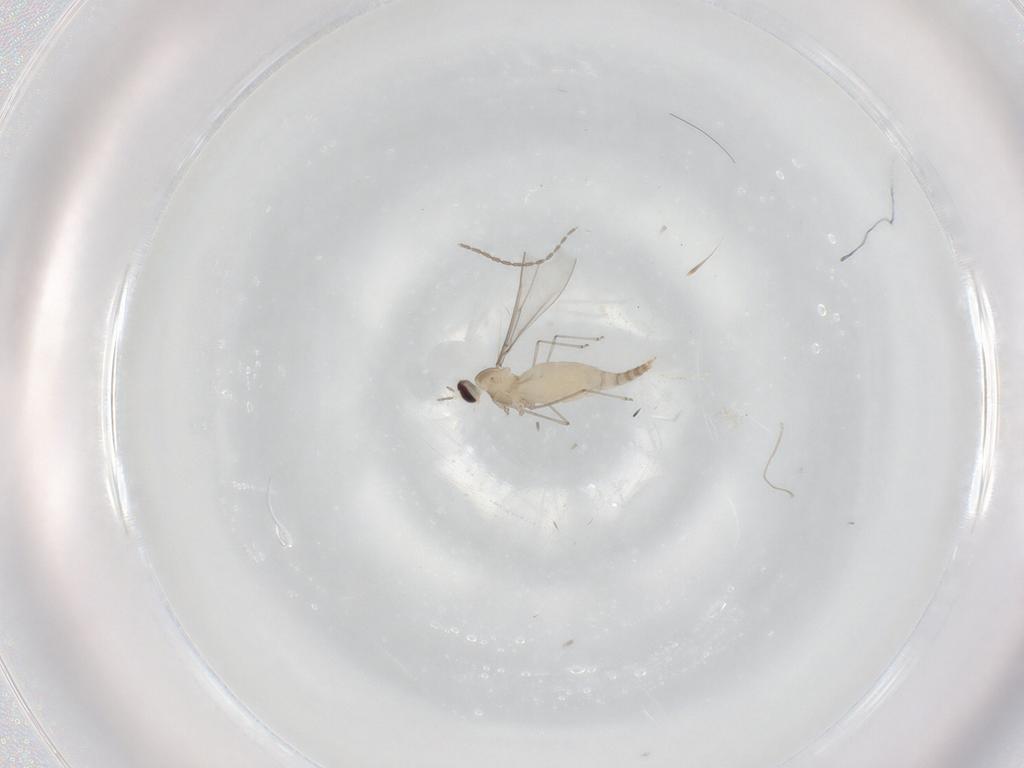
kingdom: Animalia
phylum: Arthropoda
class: Insecta
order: Diptera
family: Cecidomyiidae
